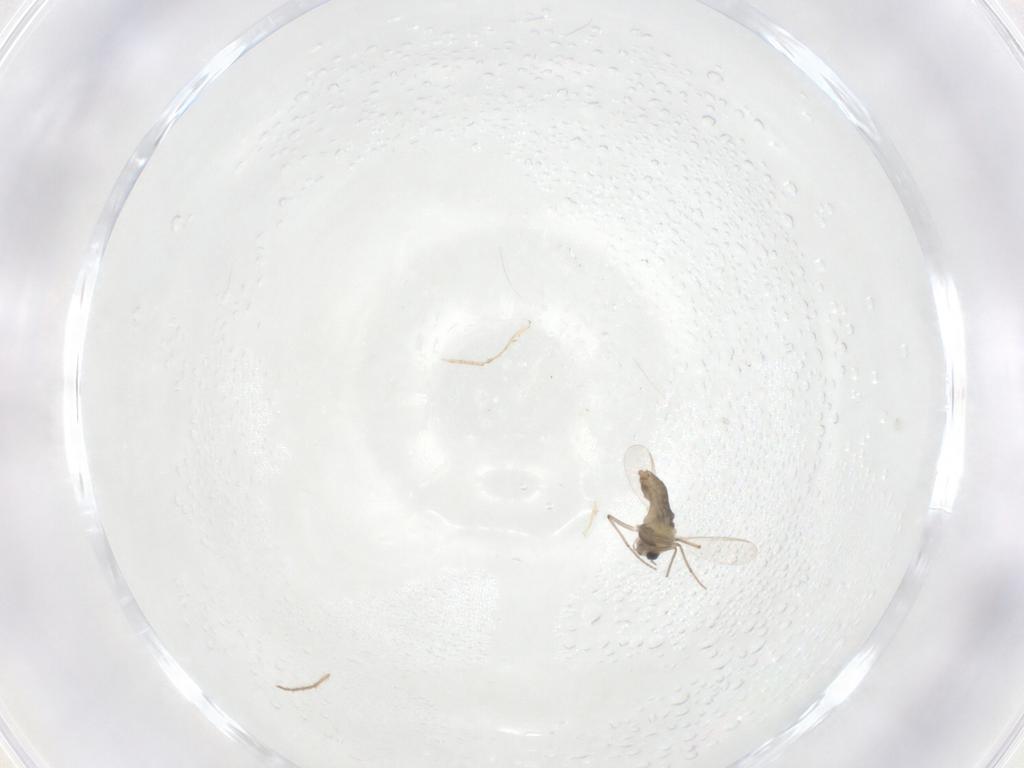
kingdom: Animalia
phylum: Arthropoda
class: Insecta
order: Diptera
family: Chironomidae
